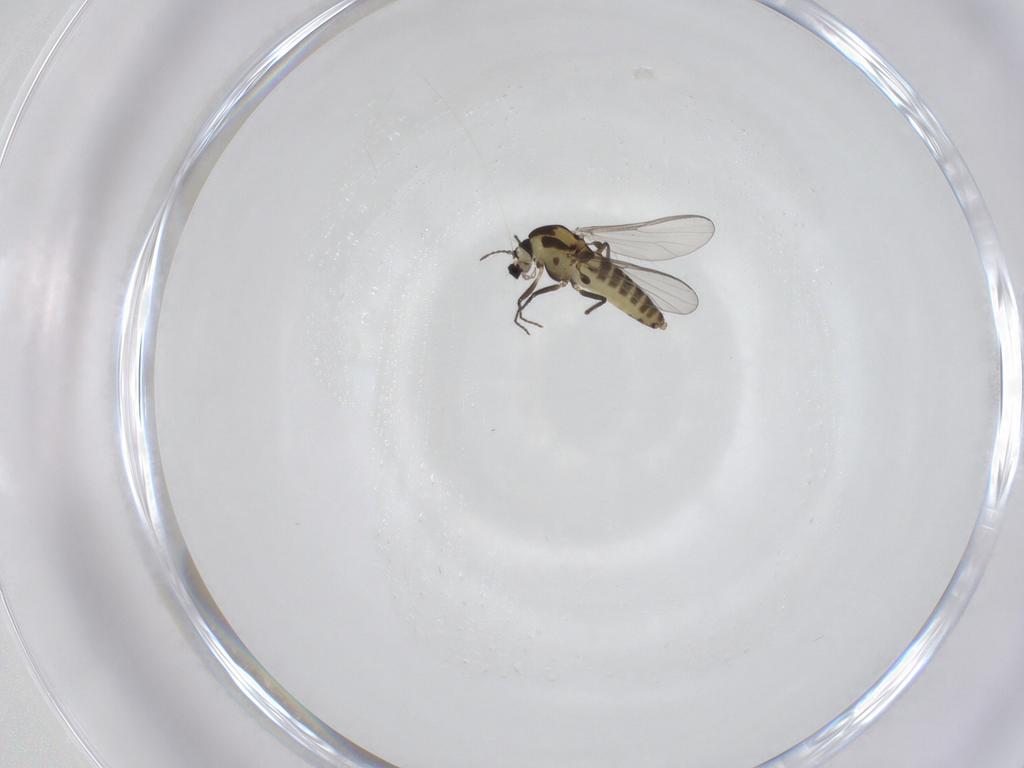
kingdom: Animalia
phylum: Arthropoda
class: Insecta
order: Diptera
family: Chironomidae
